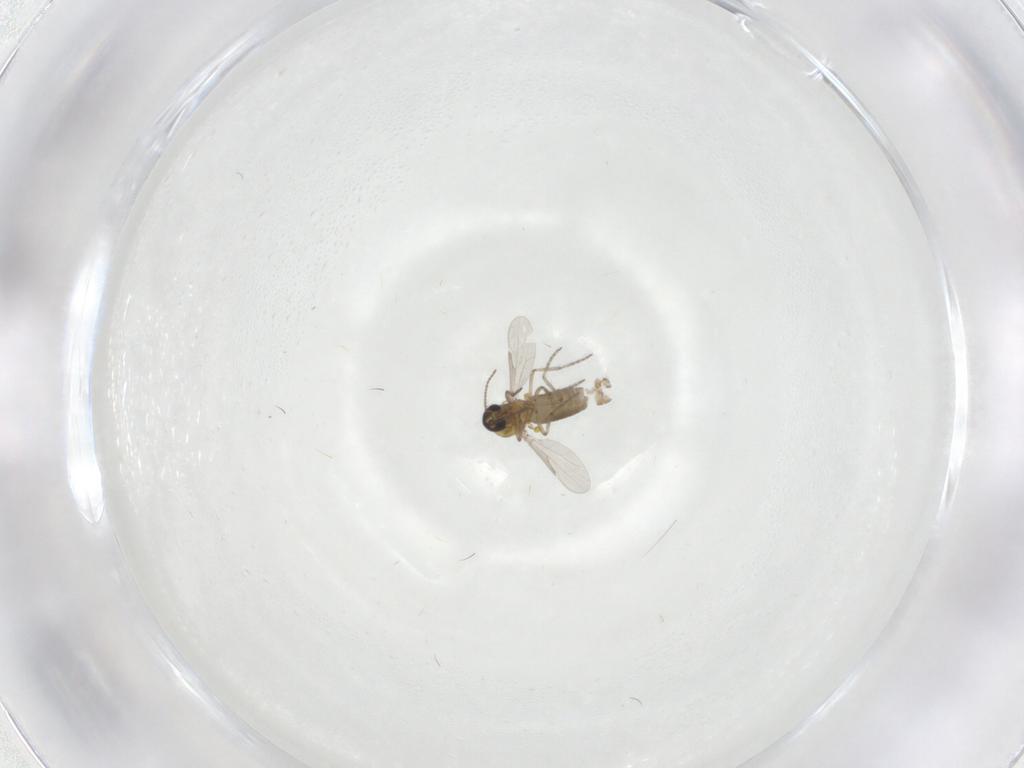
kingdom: Animalia
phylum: Arthropoda
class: Insecta
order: Diptera
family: Ceratopogonidae
